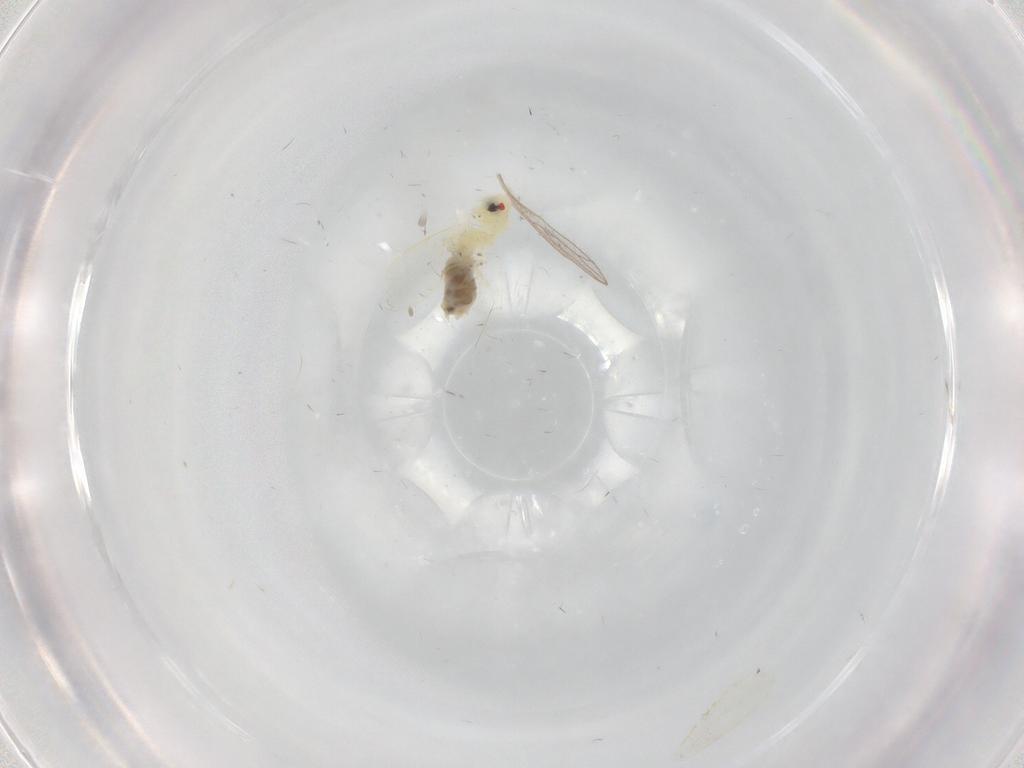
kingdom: Animalia
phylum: Arthropoda
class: Insecta
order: Hemiptera
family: Aleyrodidae
